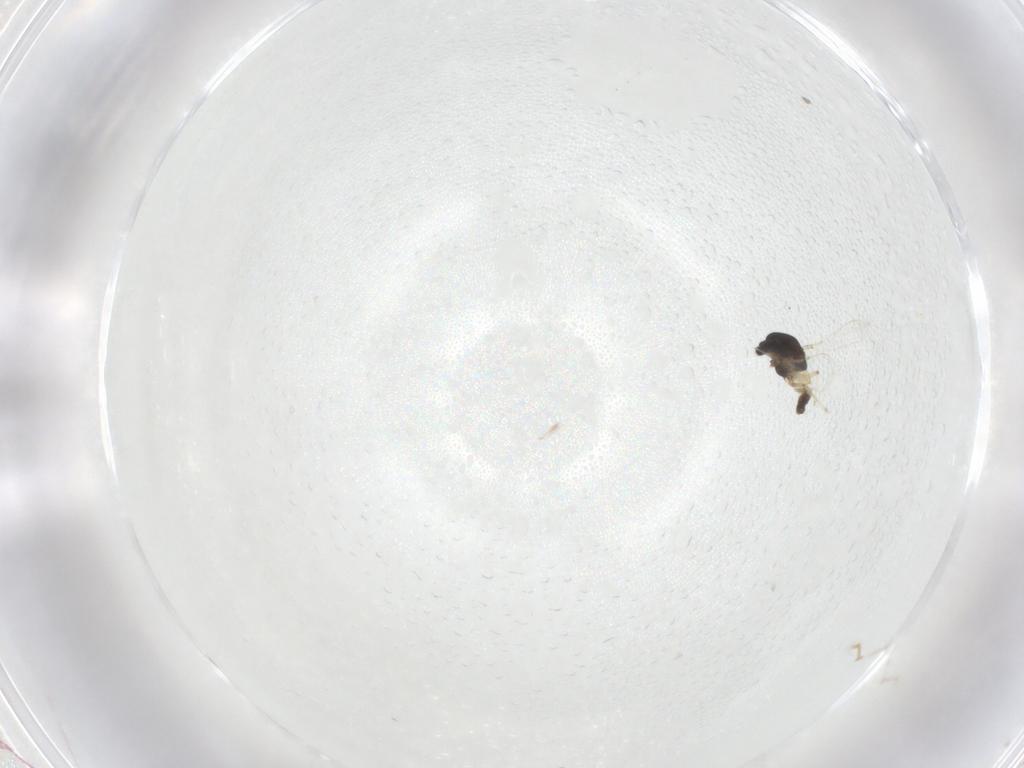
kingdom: Animalia
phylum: Arthropoda
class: Insecta
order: Diptera
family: Chironomidae
